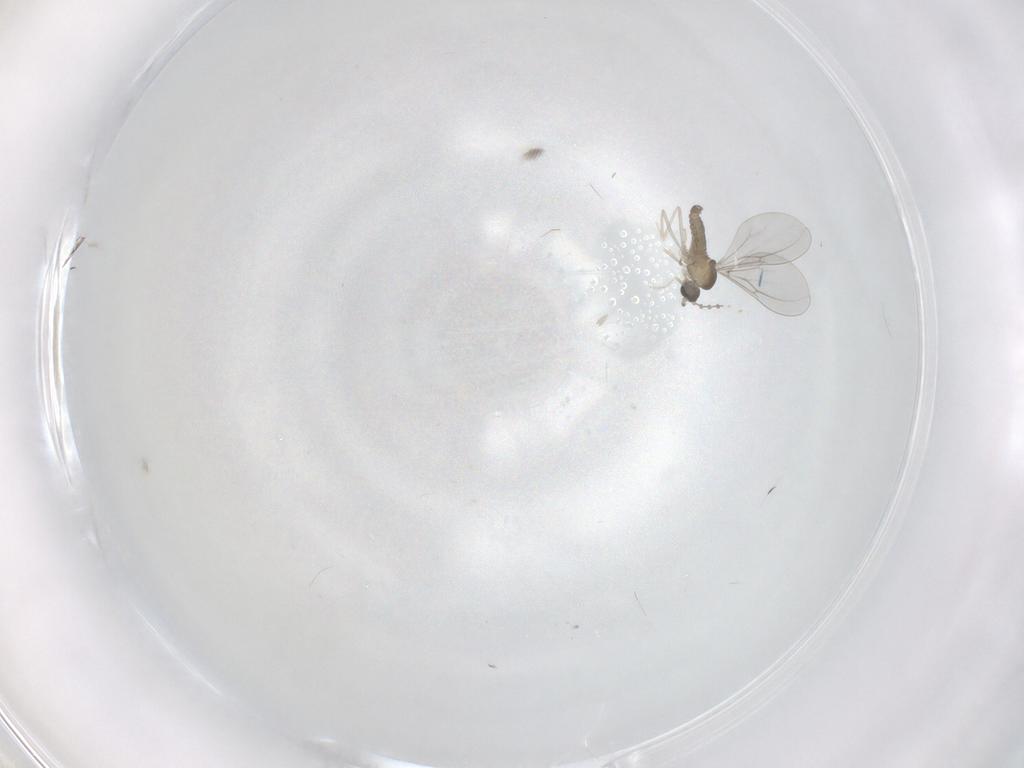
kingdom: Animalia
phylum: Arthropoda
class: Insecta
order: Diptera
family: Cecidomyiidae
